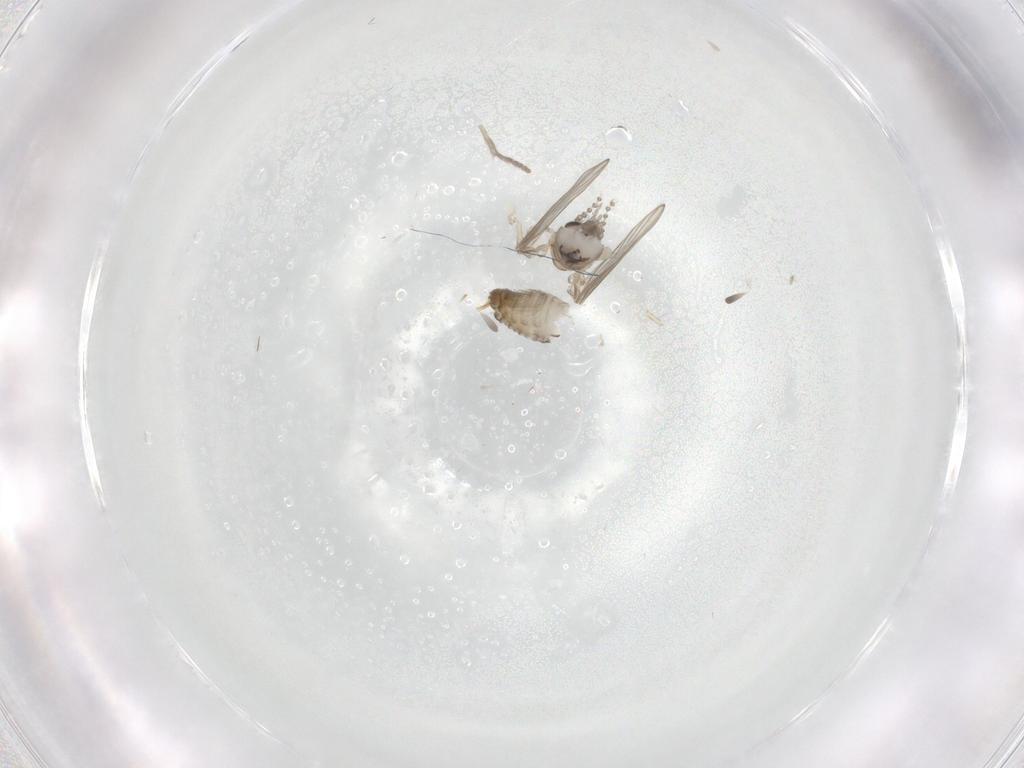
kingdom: Animalia
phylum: Arthropoda
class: Insecta
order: Diptera
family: Psychodidae
